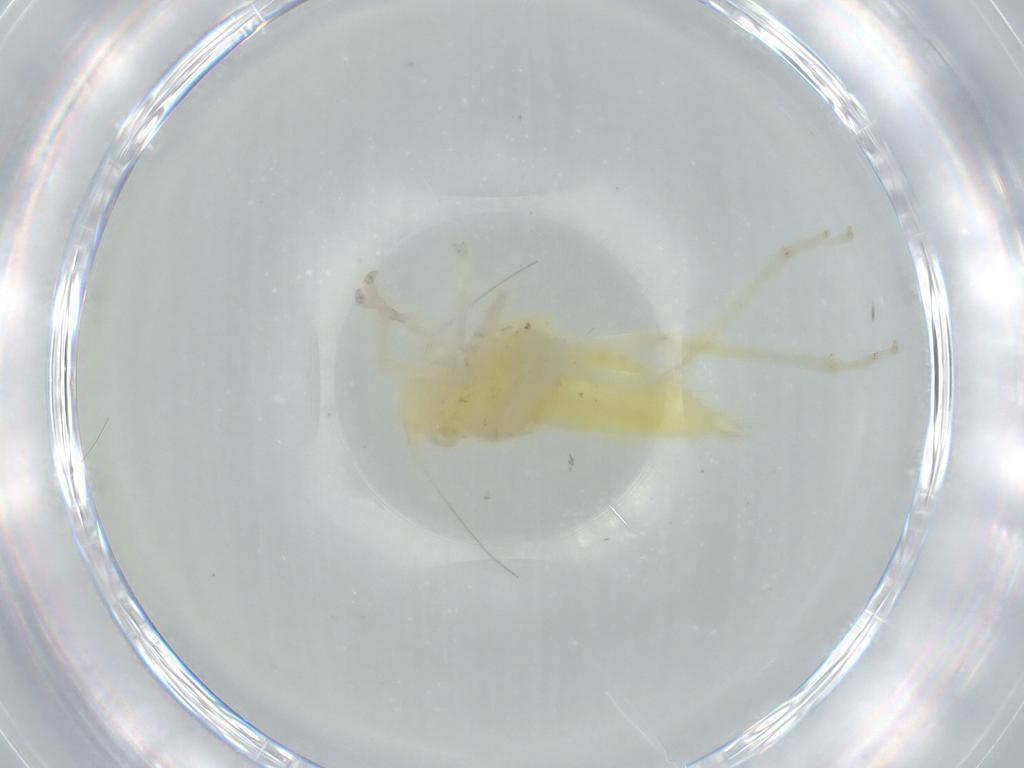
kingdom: Animalia
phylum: Arthropoda
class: Insecta
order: Hemiptera
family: Cicadellidae
